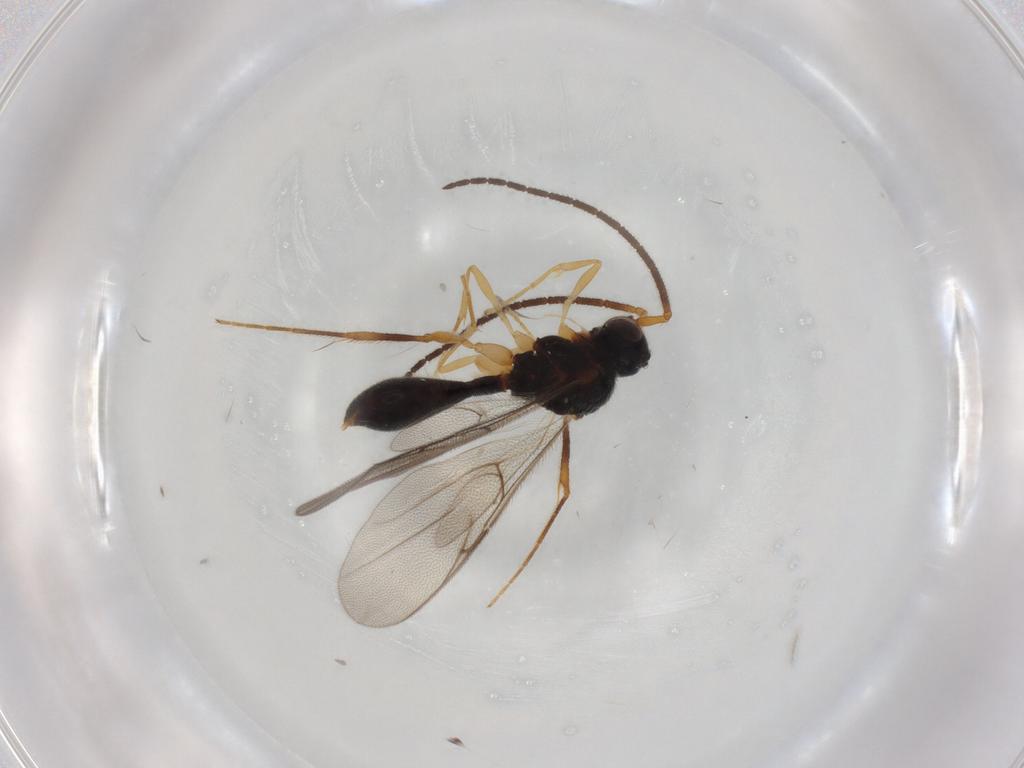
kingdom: Animalia
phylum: Arthropoda
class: Insecta
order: Hymenoptera
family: Diapriidae
